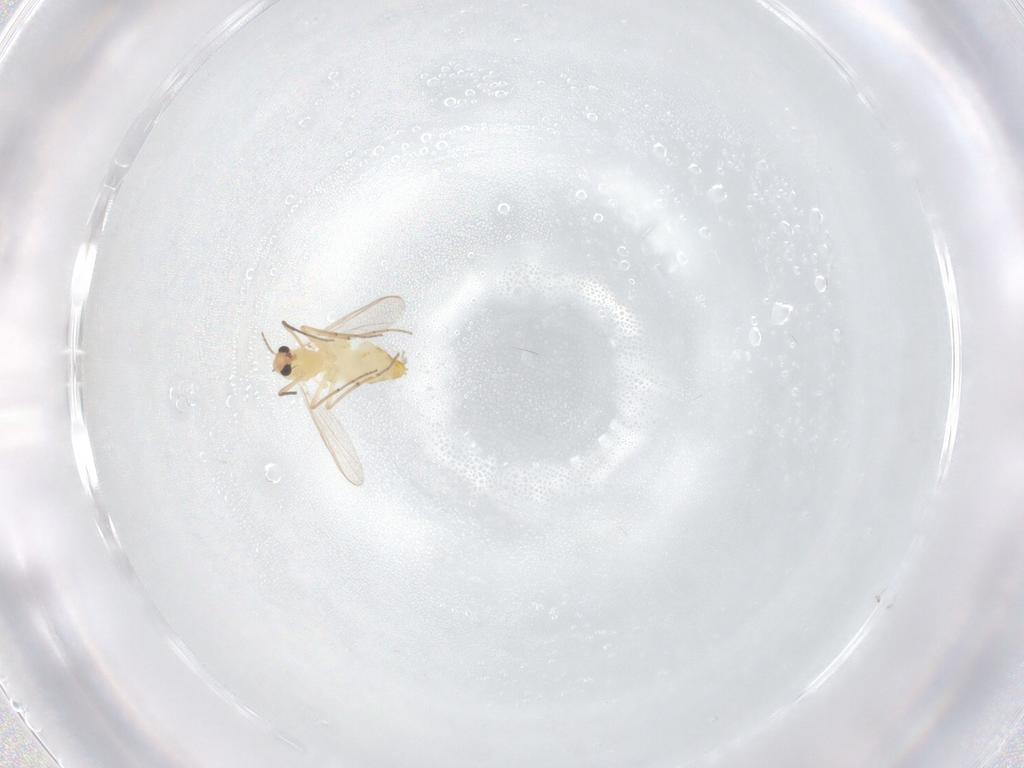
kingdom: Animalia
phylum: Arthropoda
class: Insecta
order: Diptera
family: Chironomidae
